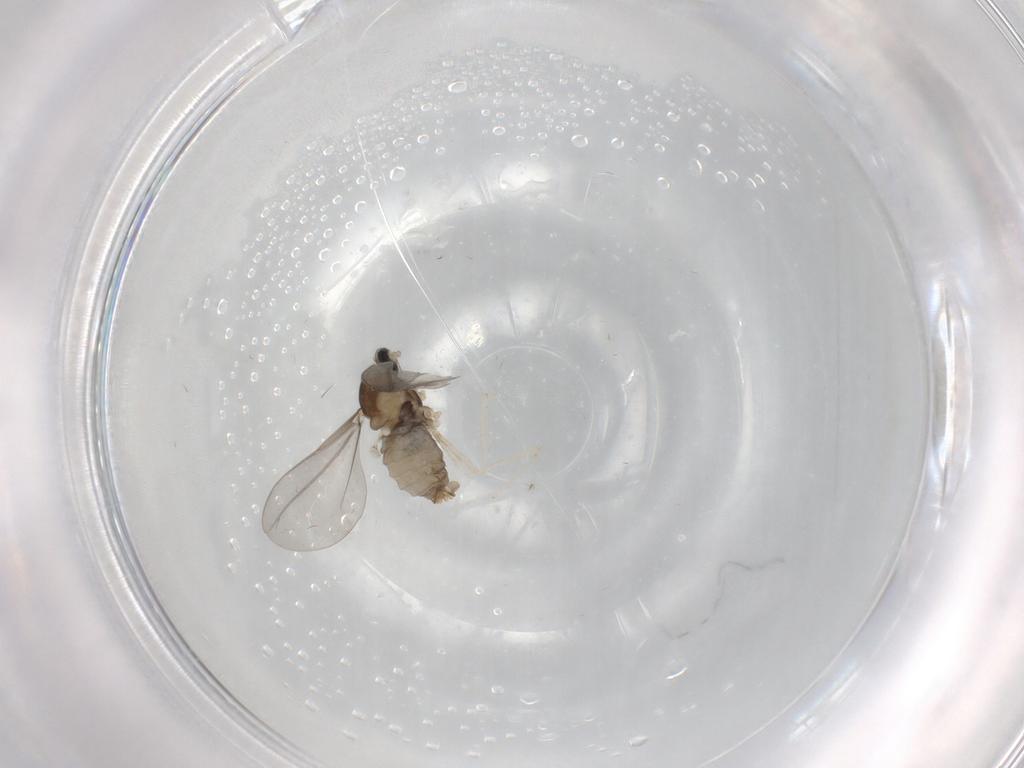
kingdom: Animalia
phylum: Arthropoda
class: Insecta
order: Diptera
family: Cecidomyiidae
